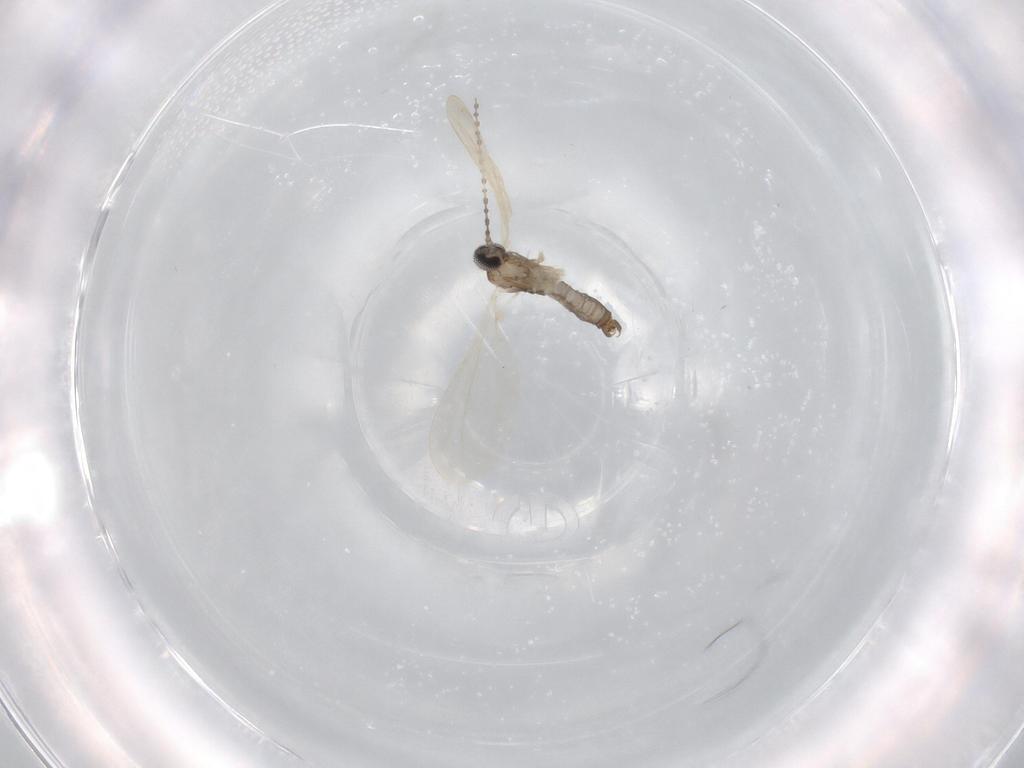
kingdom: Animalia
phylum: Arthropoda
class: Insecta
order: Diptera
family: Cecidomyiidae
